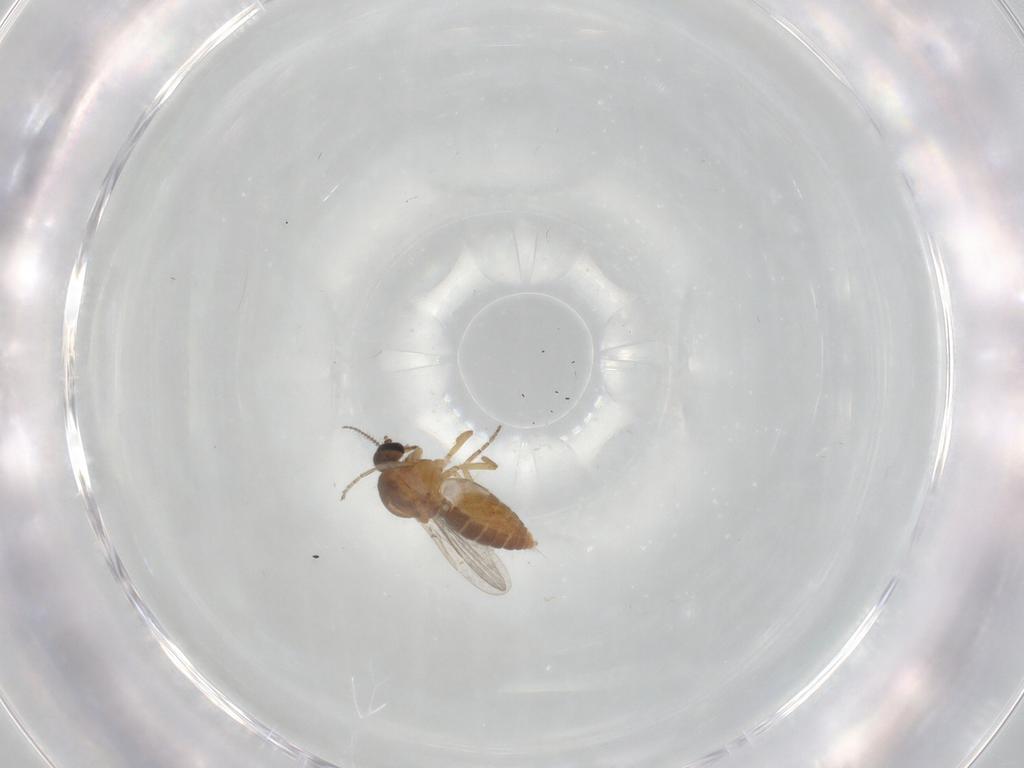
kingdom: Animalia
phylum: Arthropoda
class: Insecta
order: Diptera
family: Ceratopogonidae
